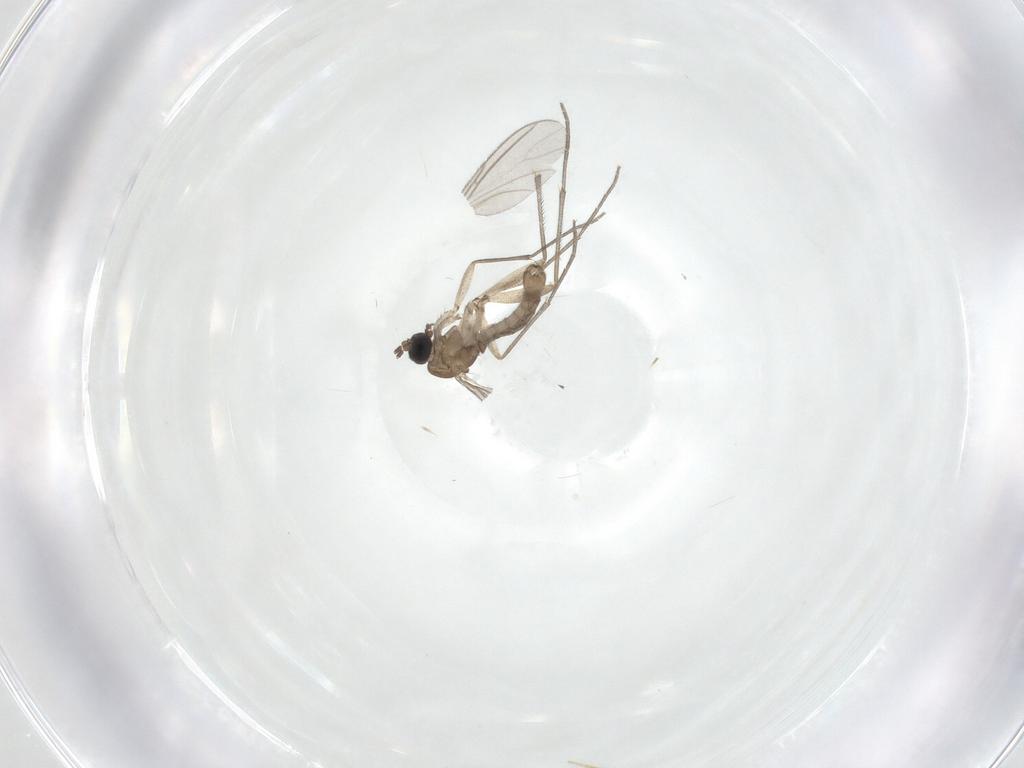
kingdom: Animalia
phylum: Arthropoda
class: Insecta
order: Diptera
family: Sciaridae
